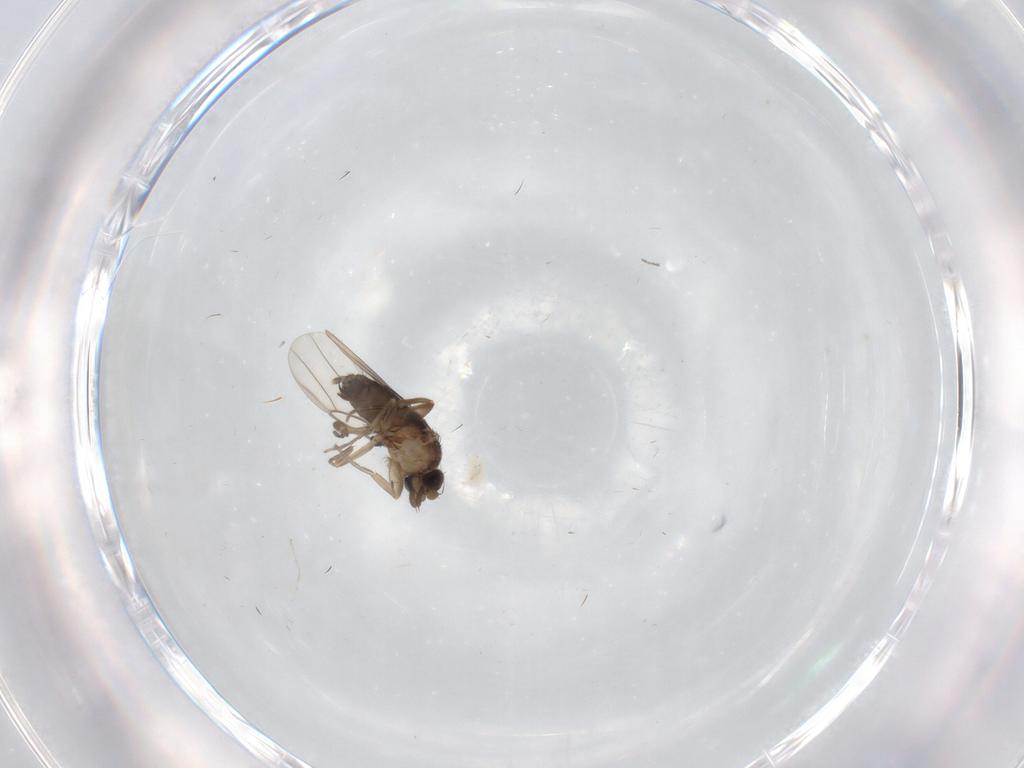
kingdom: Animalia
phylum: Arthropoda
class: Insecta
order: Diptera
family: Phoridae
